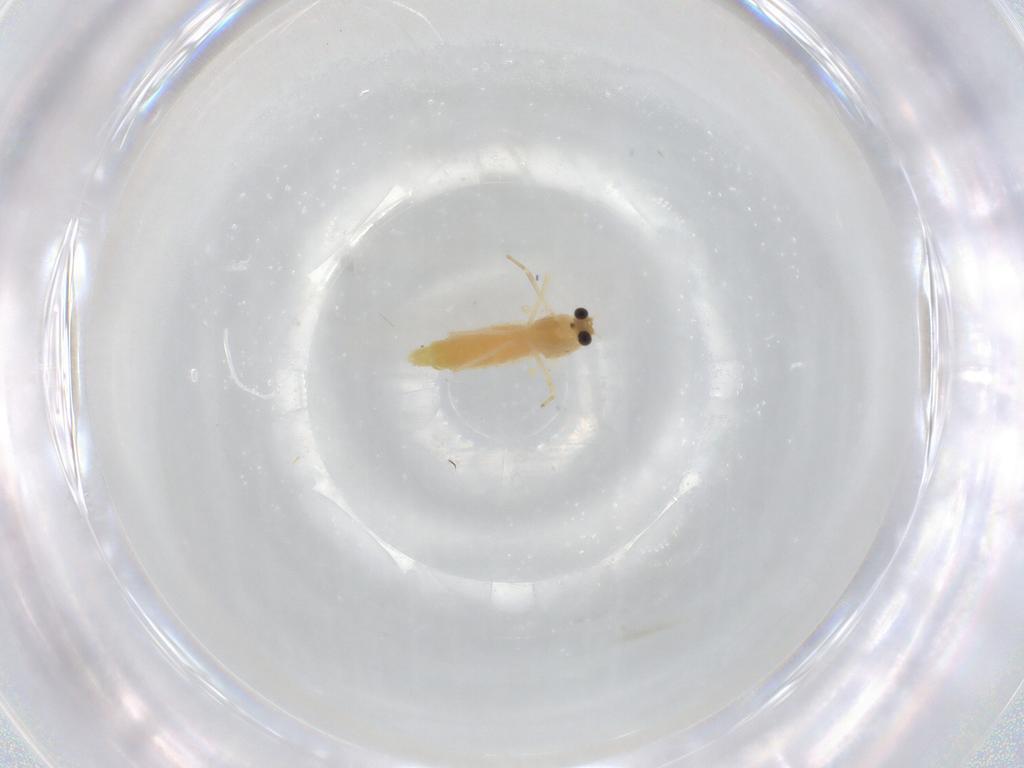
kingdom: Animalia
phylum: Arthropoda
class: Insecta
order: Diptera
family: Chironomidae
